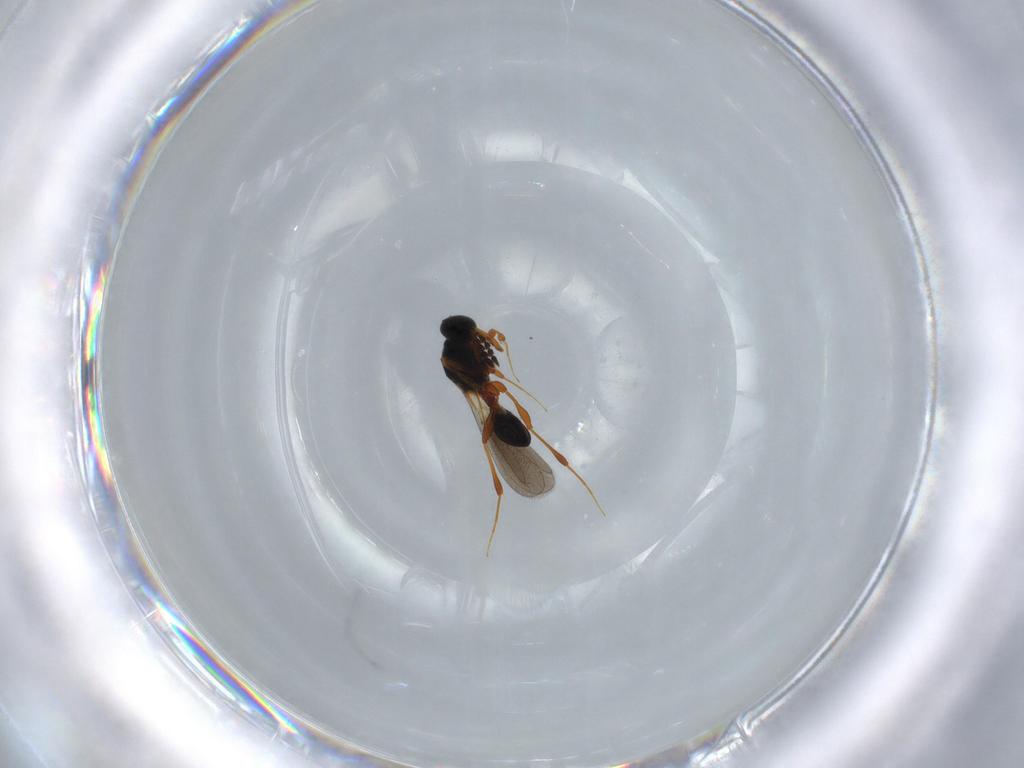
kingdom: Animalia
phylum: Arthropoda
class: Insecta
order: Hymenoptera
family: Platygastridae
